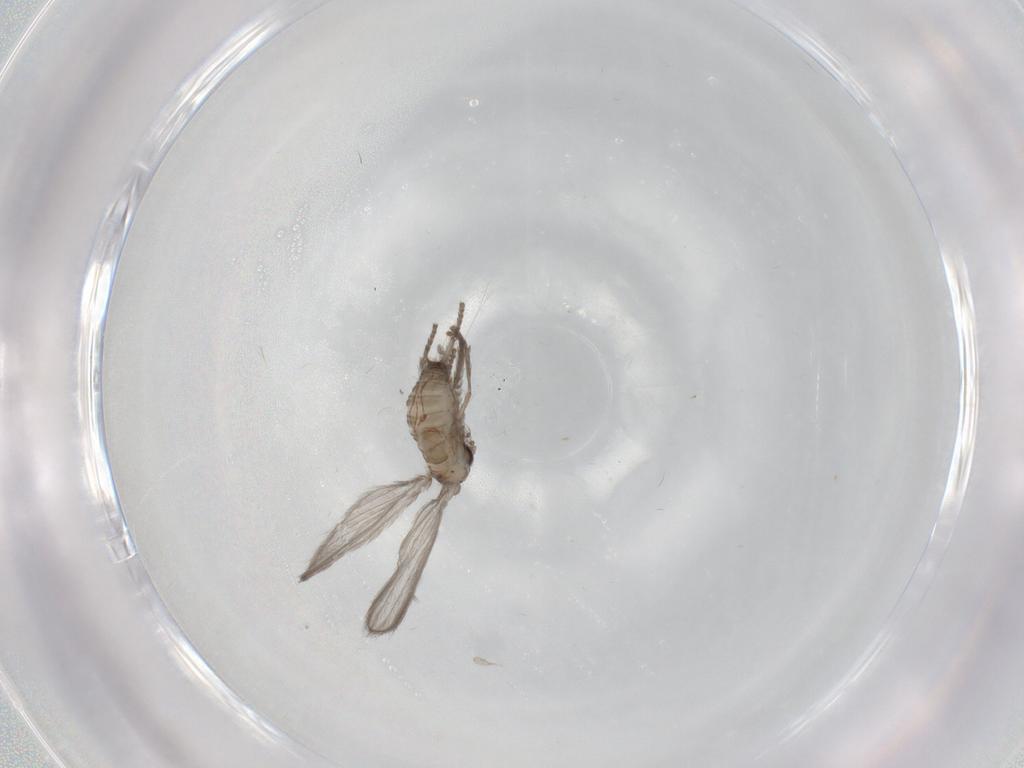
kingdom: Animalia
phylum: Arthropoda
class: Insecta
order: Diptera
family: Psychodidae
